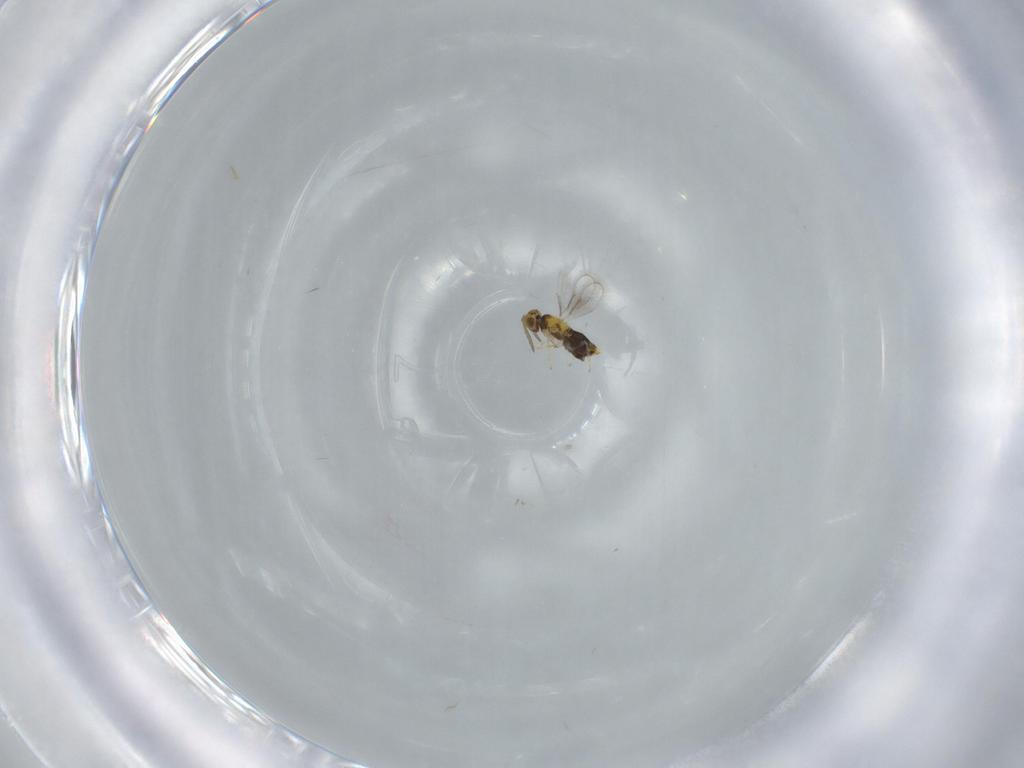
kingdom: Animalia
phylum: Arthropoda
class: Insecta
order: Hymenoptera
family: Aphelinidae
